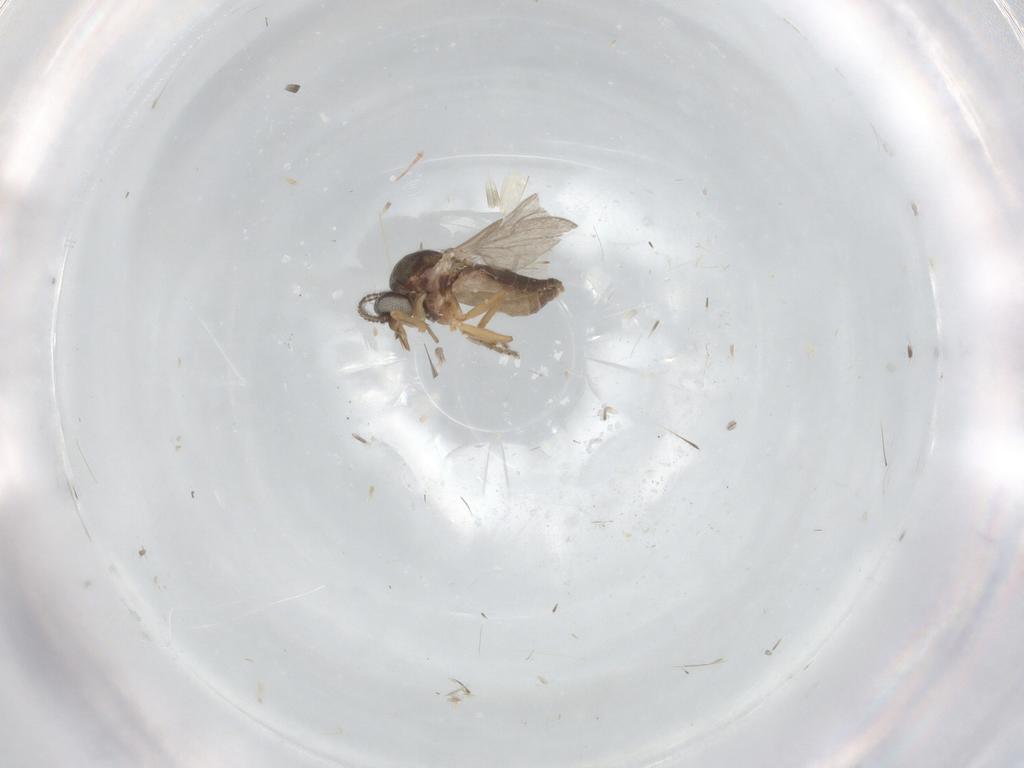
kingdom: Animalia
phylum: Arthropoda
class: Insecta
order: Diptera
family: Ceratopogonidae
